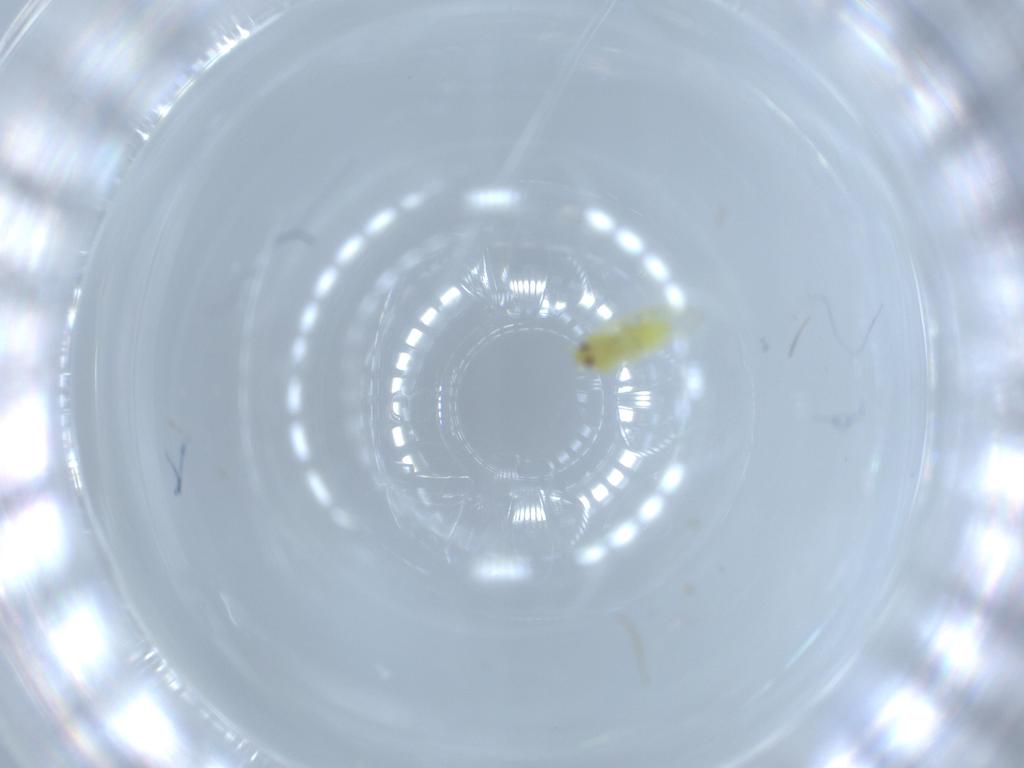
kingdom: Animalia
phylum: Arthropoda
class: Insecta
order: Hemiptera
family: Aleyrodidae
